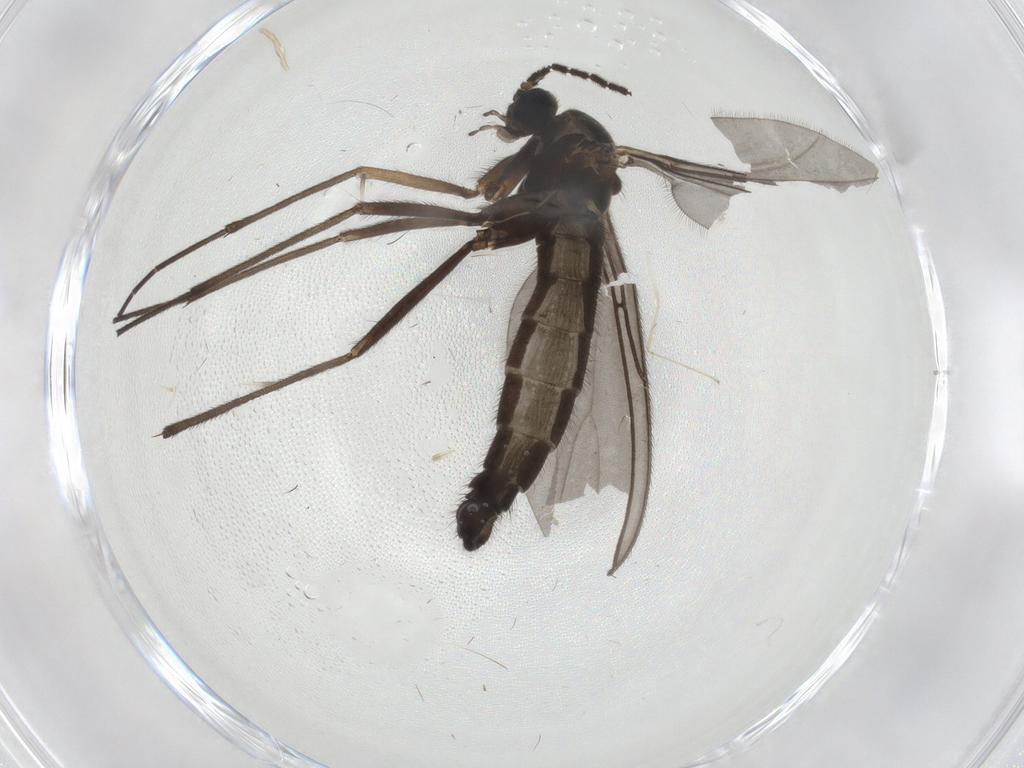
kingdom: Animalia
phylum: Arthropoda
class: Insecta
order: Diptera
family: Sciaridae
